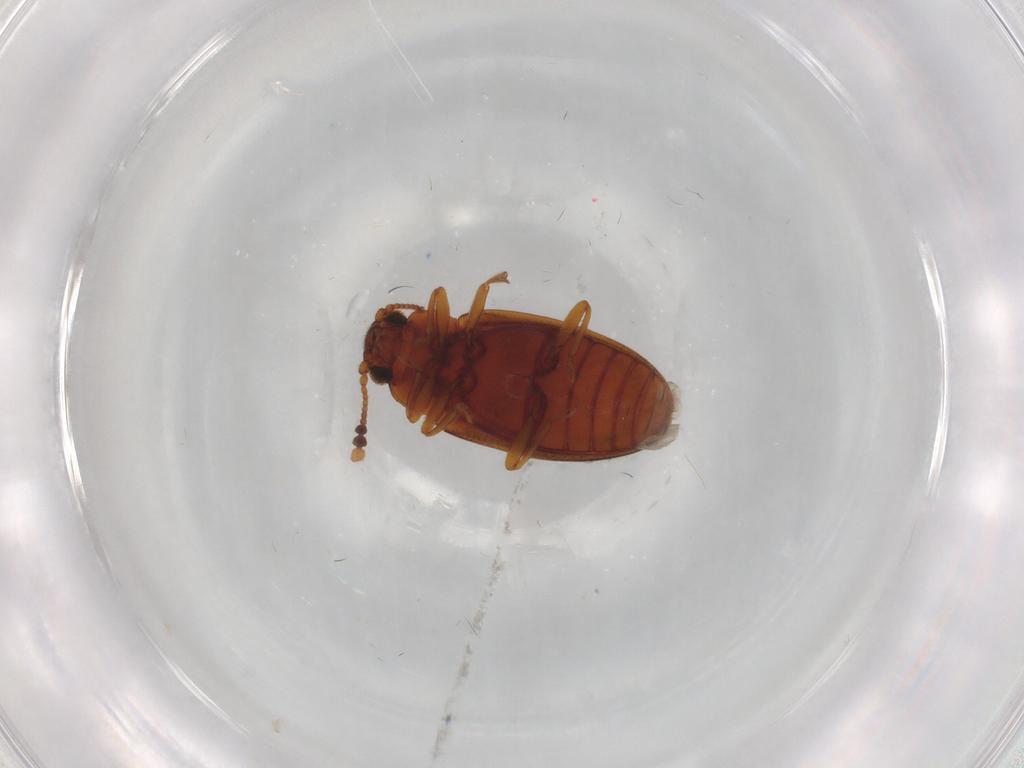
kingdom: Animalia
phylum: Arthropoda
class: Insecta
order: Coleoptera
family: Erotylidae
